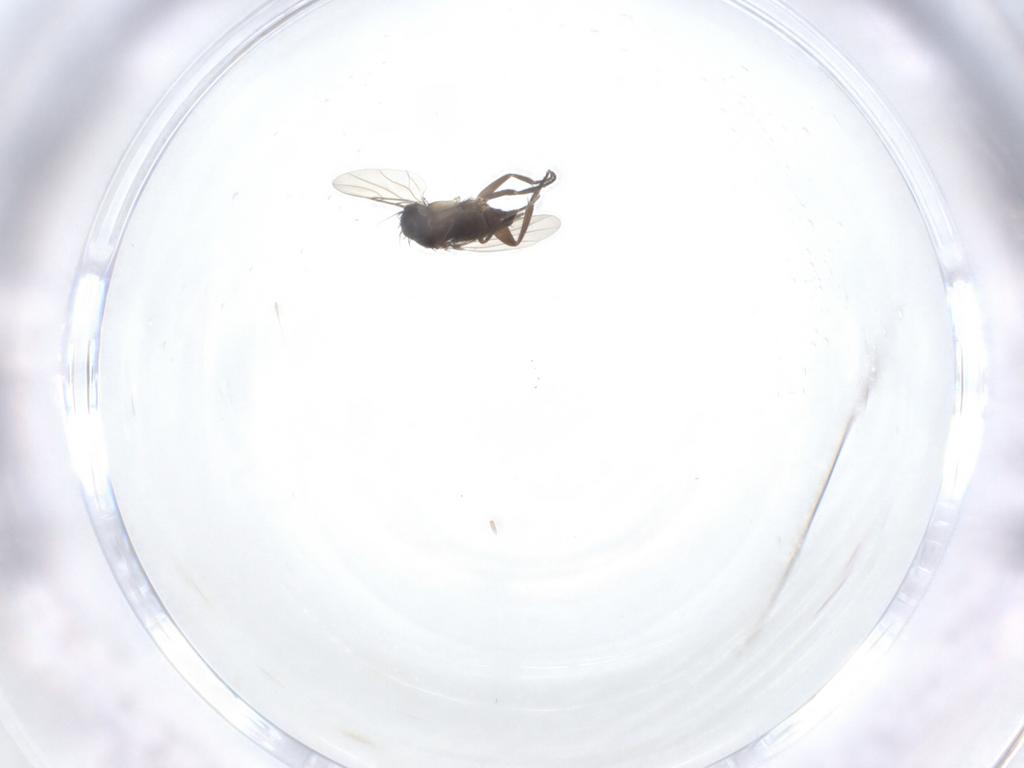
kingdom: Animalia
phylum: Arthropoda
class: Insecta
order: Diptera
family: Phoridae
